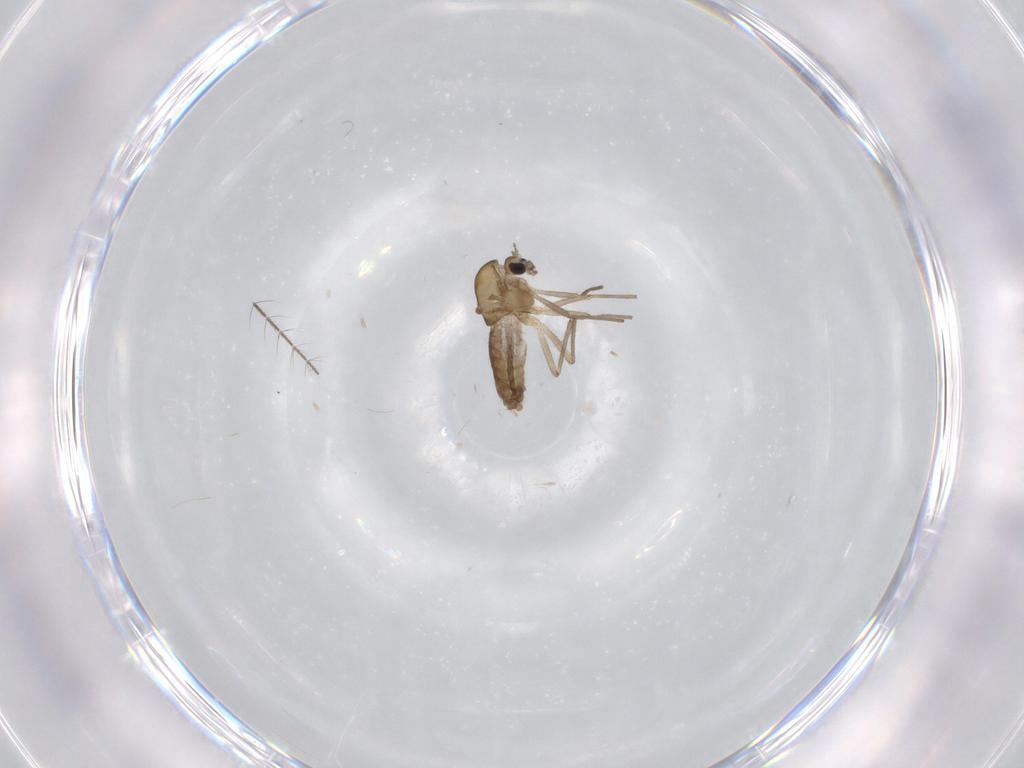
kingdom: Animalia
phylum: Arthropoda
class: Insecta
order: Diptera
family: Chironomidae
